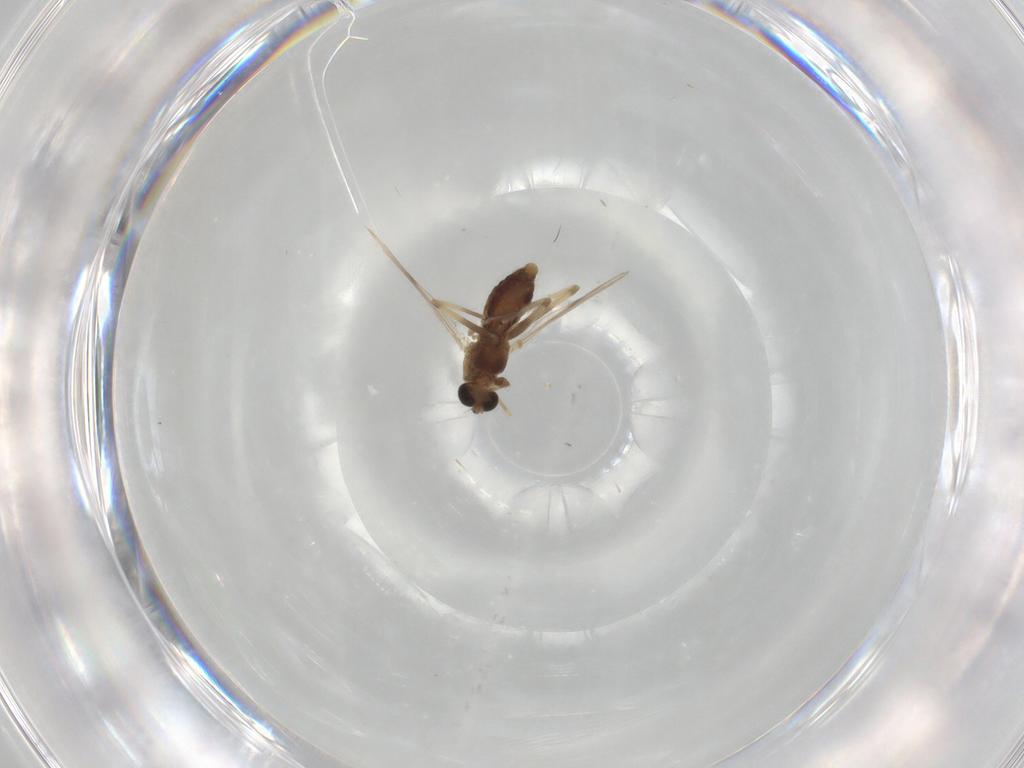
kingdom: Animalia
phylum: Arthropoda
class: Insecta
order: Diptera
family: Chironomidae
